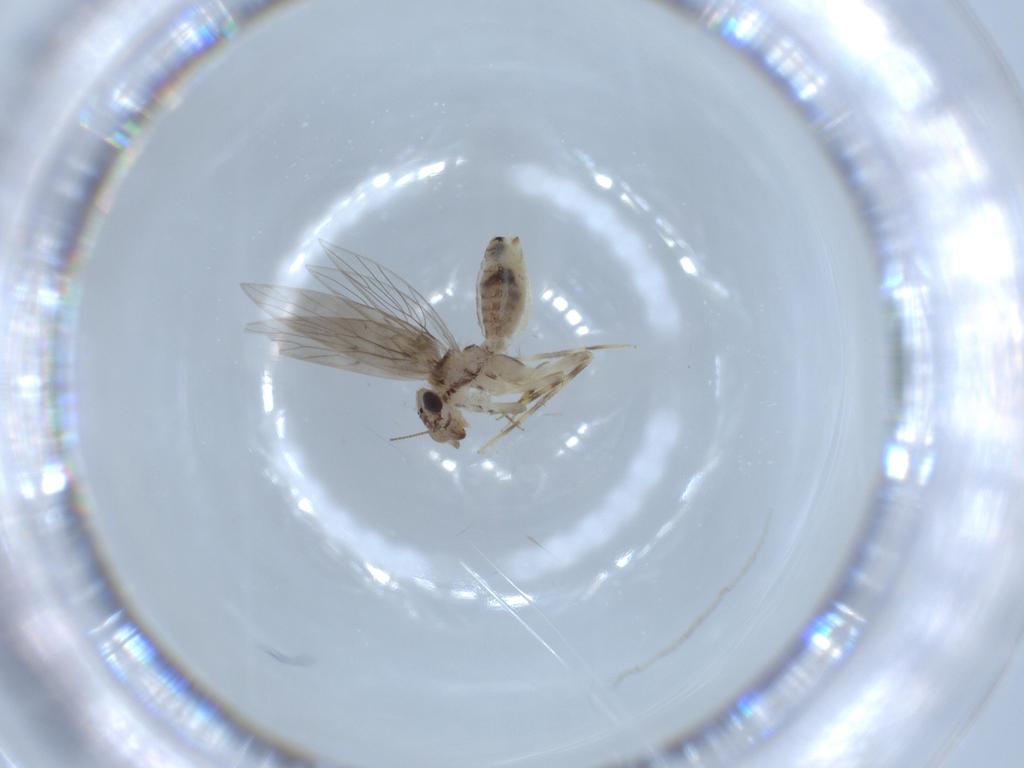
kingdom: Animalia
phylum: Arthropoda
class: Insecta
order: Psocodea
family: Lepidopsocidae
